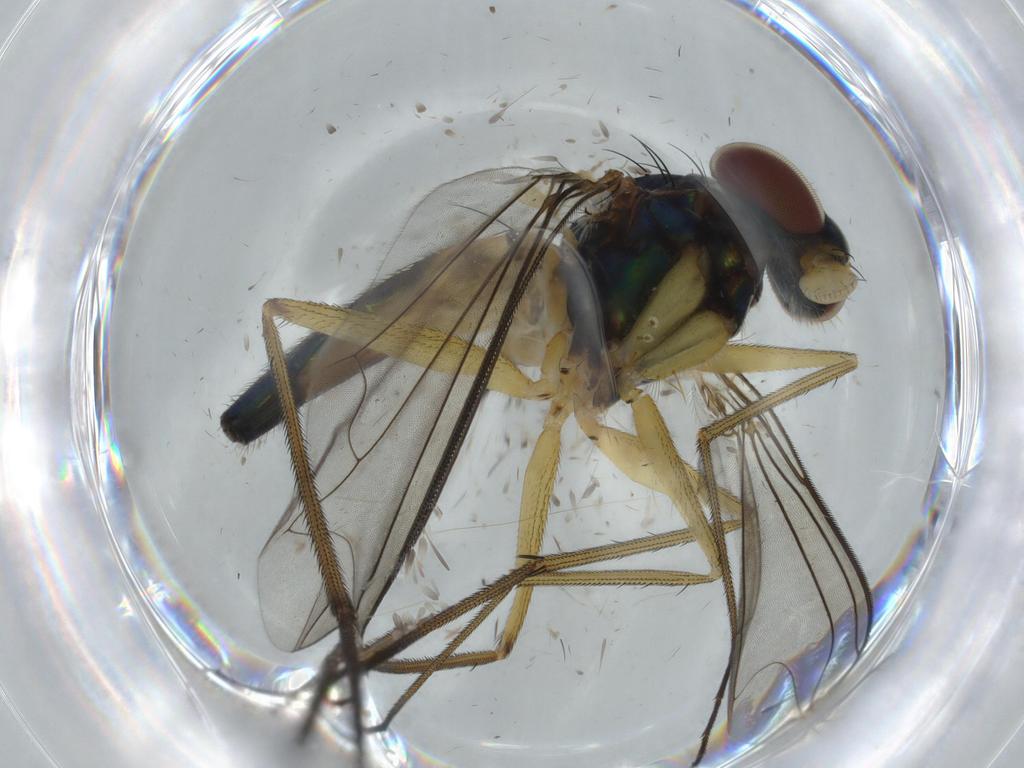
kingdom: Animalia
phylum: Arthropoda
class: Insecta
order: Diptera
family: Dolichopodidae
